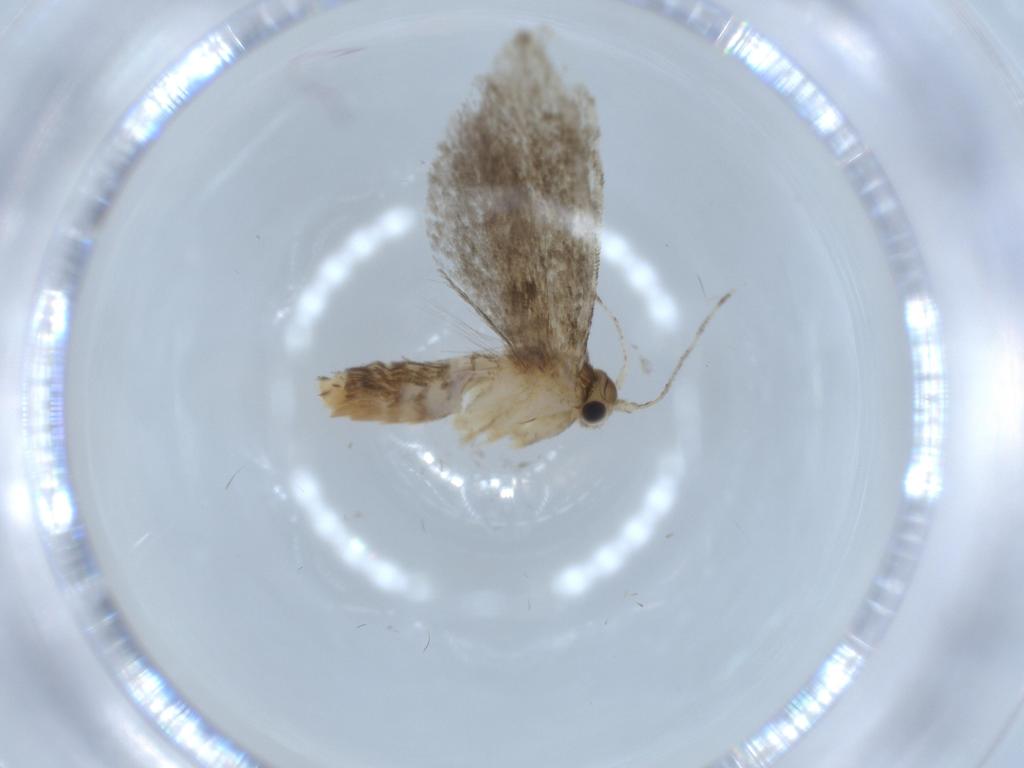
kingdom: Animalia
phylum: Arthropoda
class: Insecta
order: Lepidoptera
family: Tineidae
